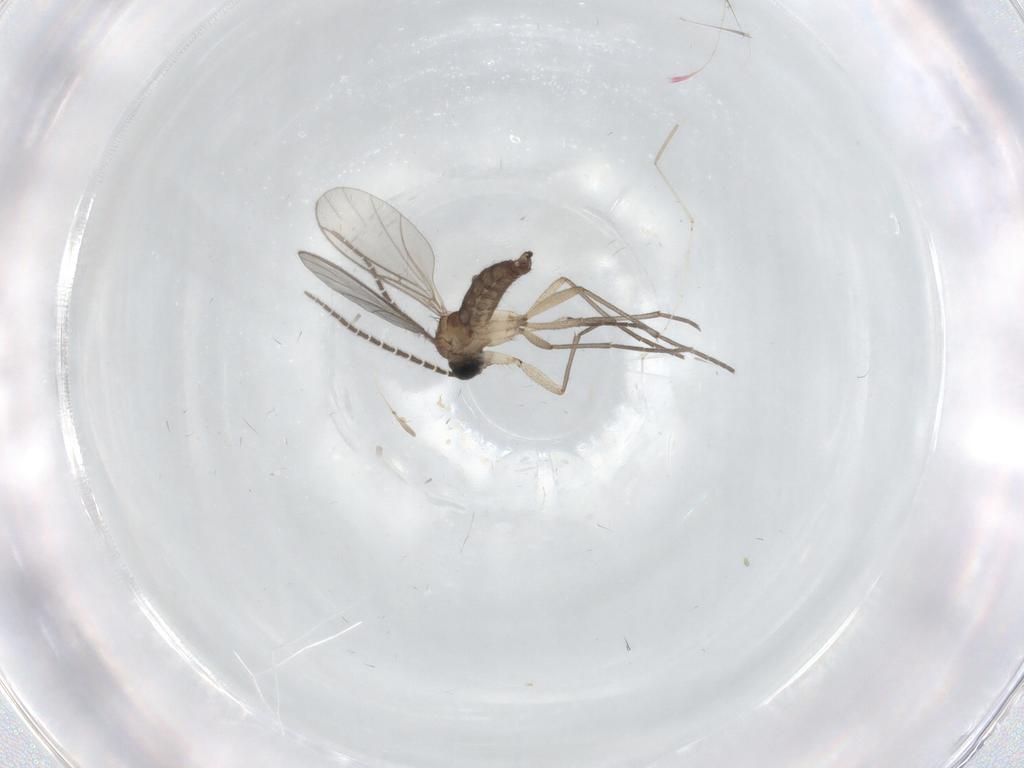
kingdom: Animalia
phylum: Arthropoda
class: Insecta
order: Diptera
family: Sciaridae
